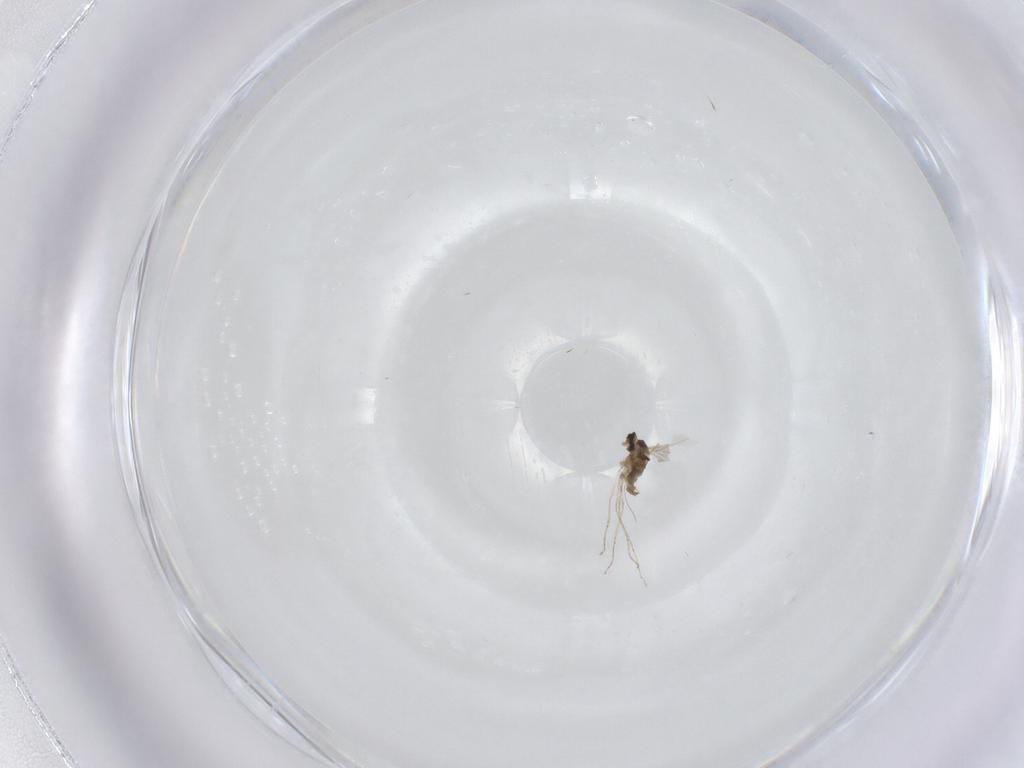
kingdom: Animalia
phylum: Arthropoda
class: Insecta
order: Diptera
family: Cecidomyiidae
